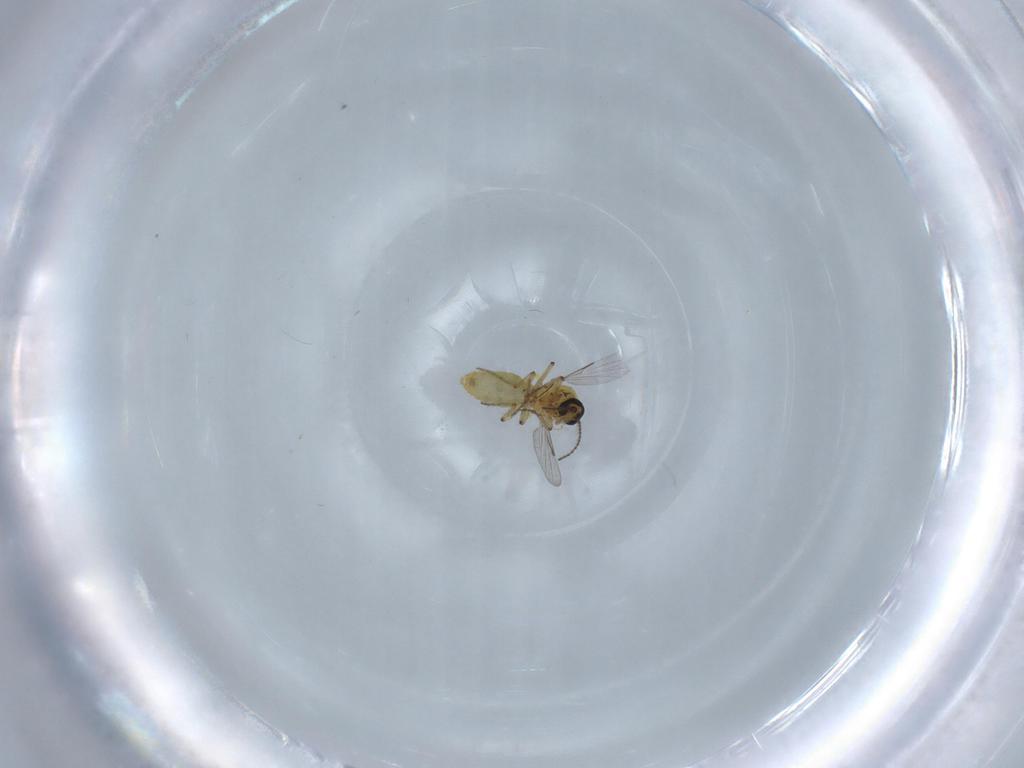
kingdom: Animalia
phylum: Arthropoda
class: Insecta
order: Diptera
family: Ceratopogonidae
